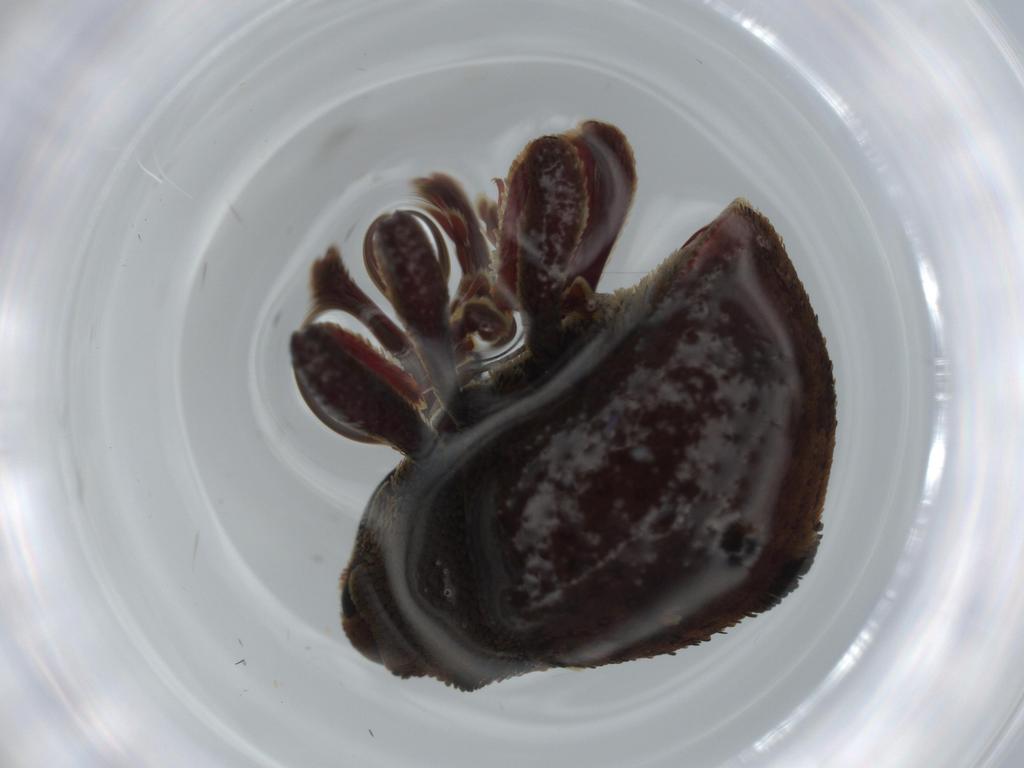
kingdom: Animalia
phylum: Arthropoda
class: Insecta
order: Coleoptera
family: Curculionidae
